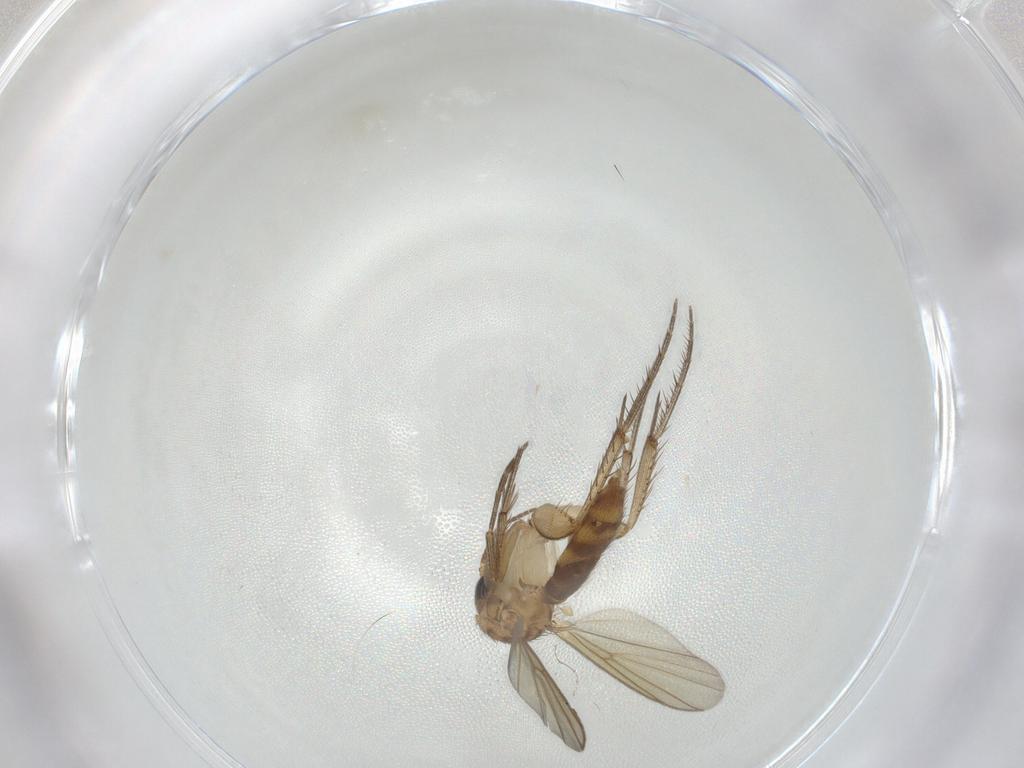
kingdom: Animalia
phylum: Arthropoda
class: Insecta
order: Diptera
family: Mycetophilidae
